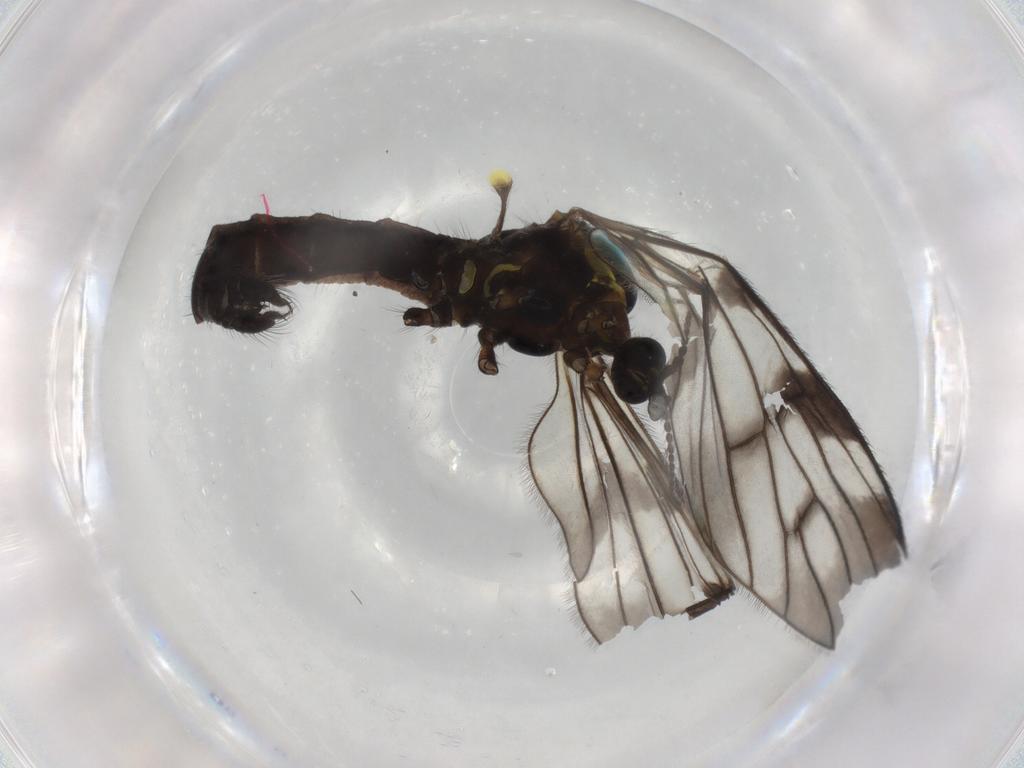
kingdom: Animalia
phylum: Arthropoda
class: Insecta
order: Diptera
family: Limoniidae
